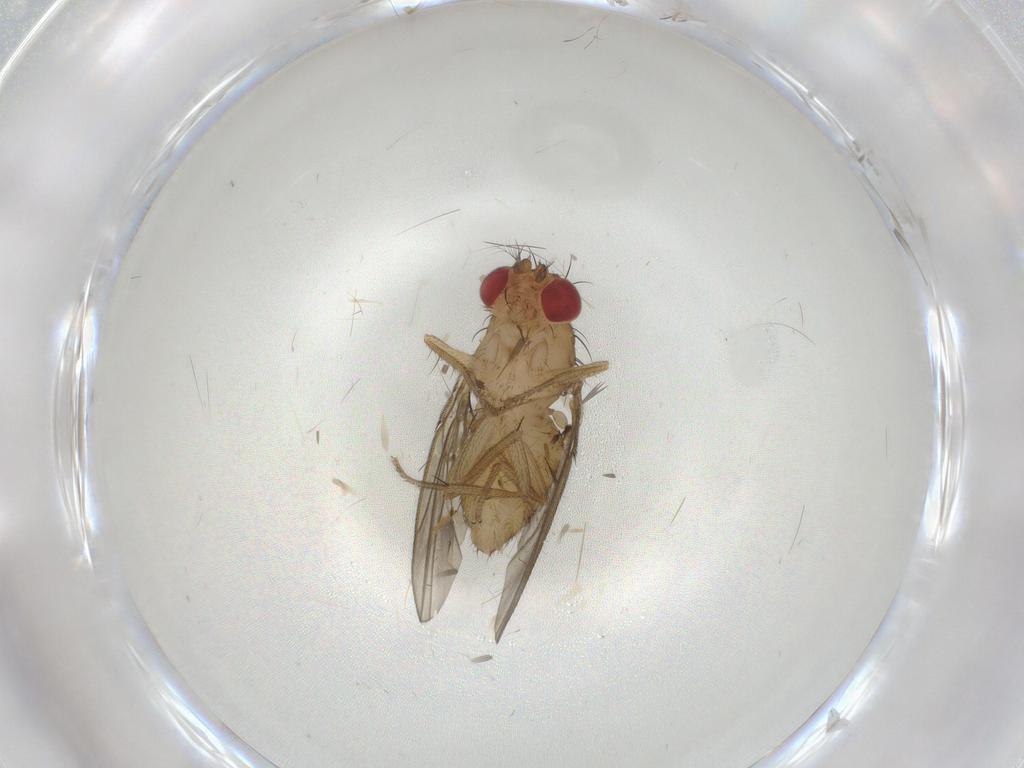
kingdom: Animalia
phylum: Arthropoda
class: Insecta
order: Diptera
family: Drosophilidae
